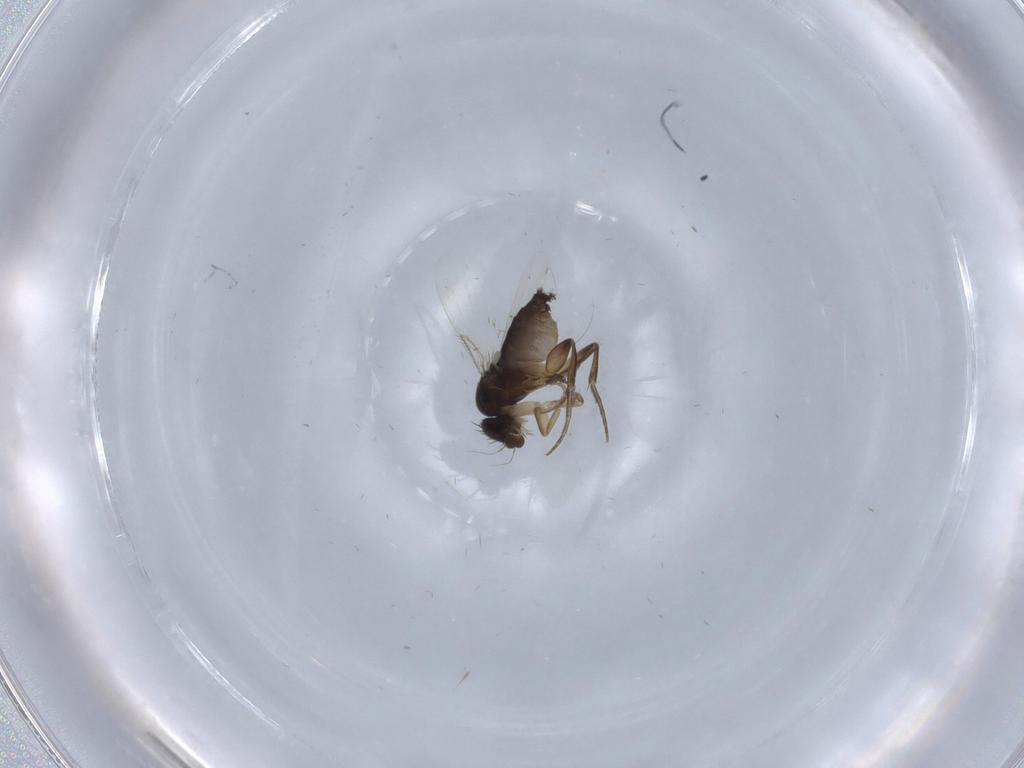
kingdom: Animalia
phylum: Arthropoda
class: Insecta
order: Diptera
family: Phoridae
